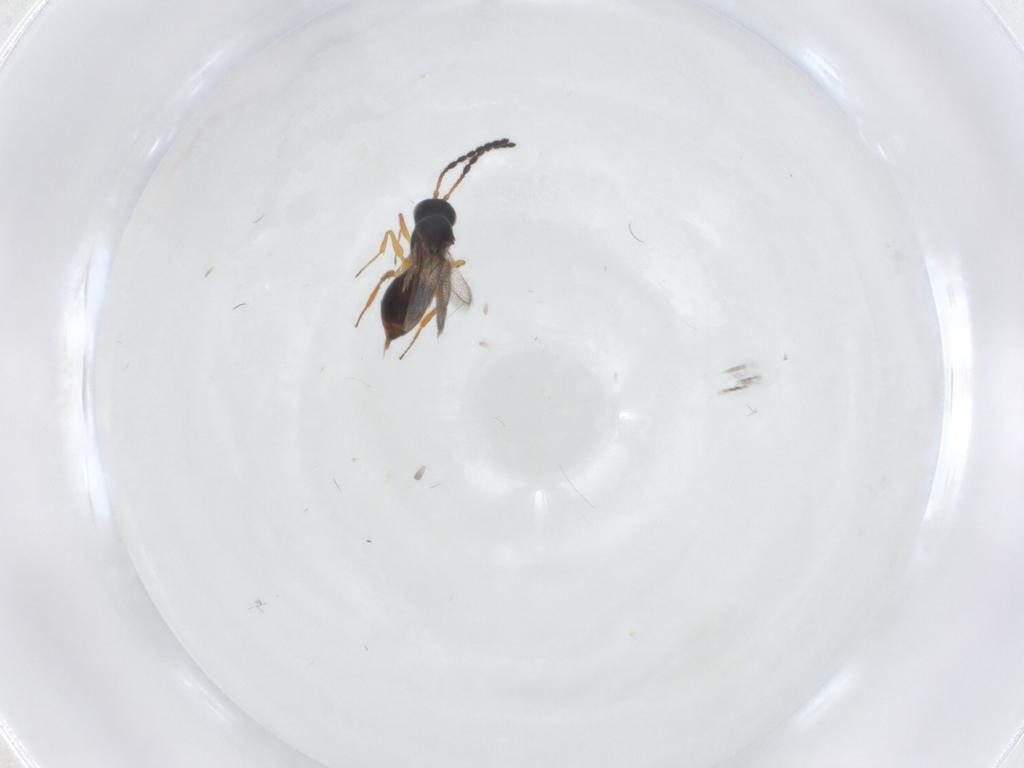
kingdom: Animalia
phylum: Arthropoda
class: Insecta
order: Hymenoptera
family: Figitidae
